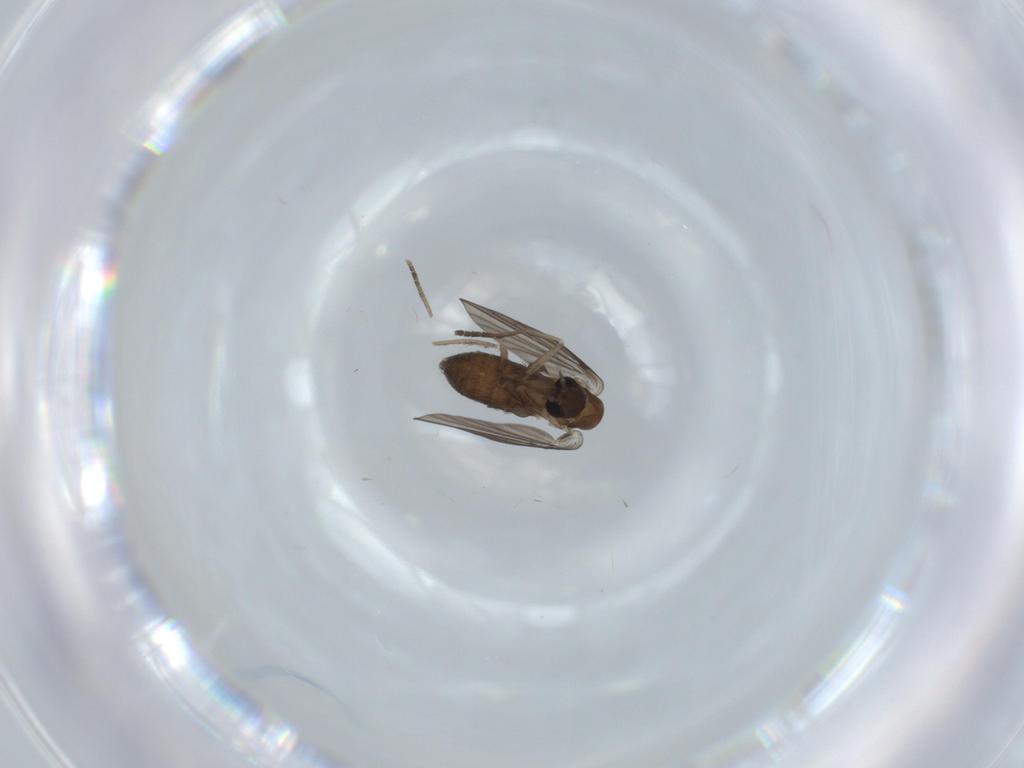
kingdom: Animalia
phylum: Arthropoda
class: Insecta
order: Diptera
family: Psychodidae
